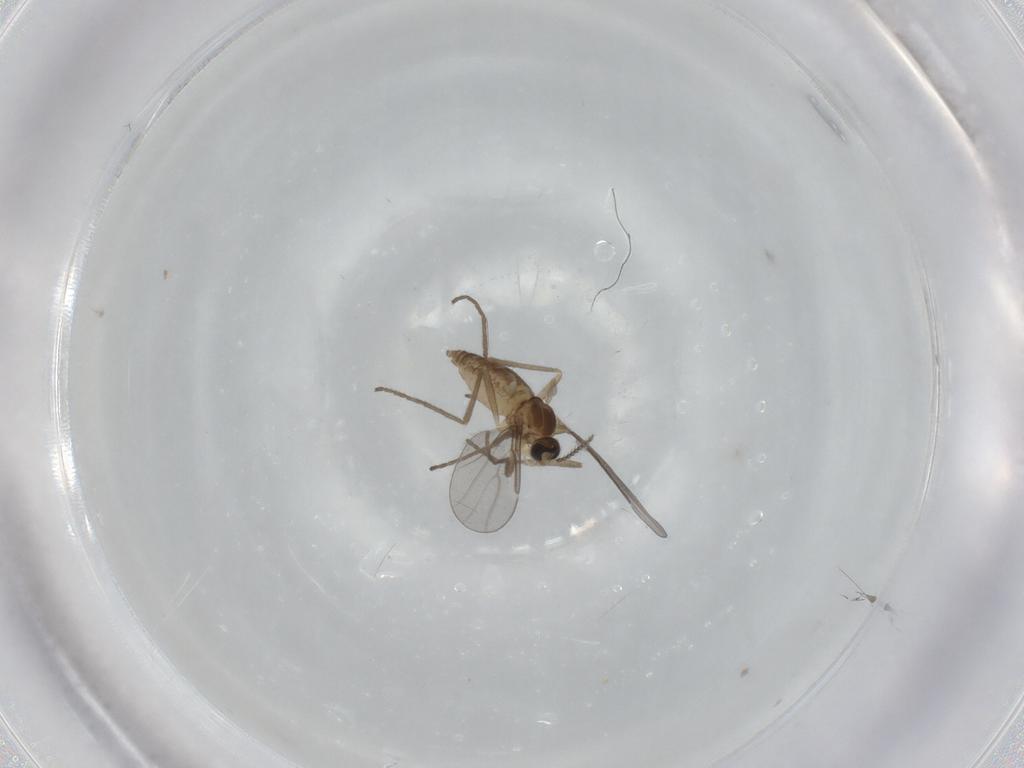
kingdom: Animalia
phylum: Arthropoda
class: Insecta
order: Diptera
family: Cecidomyiidae
